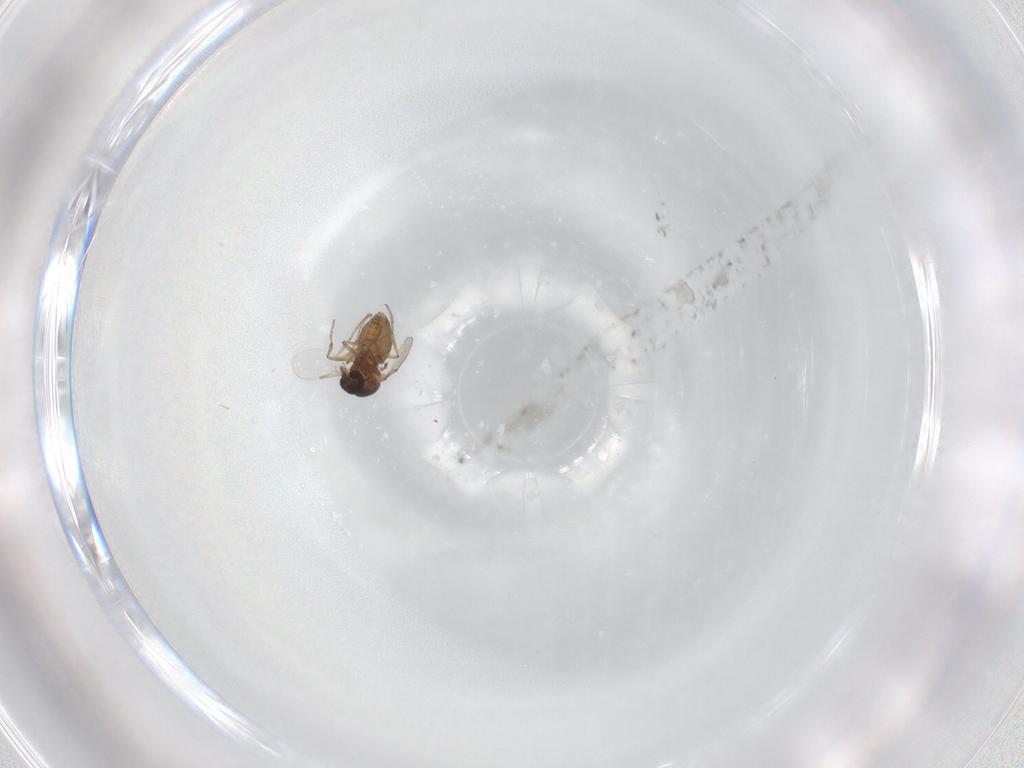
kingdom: Animalia
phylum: Arthropoda
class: Insecta
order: Diptera
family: Ceratopogonidae
